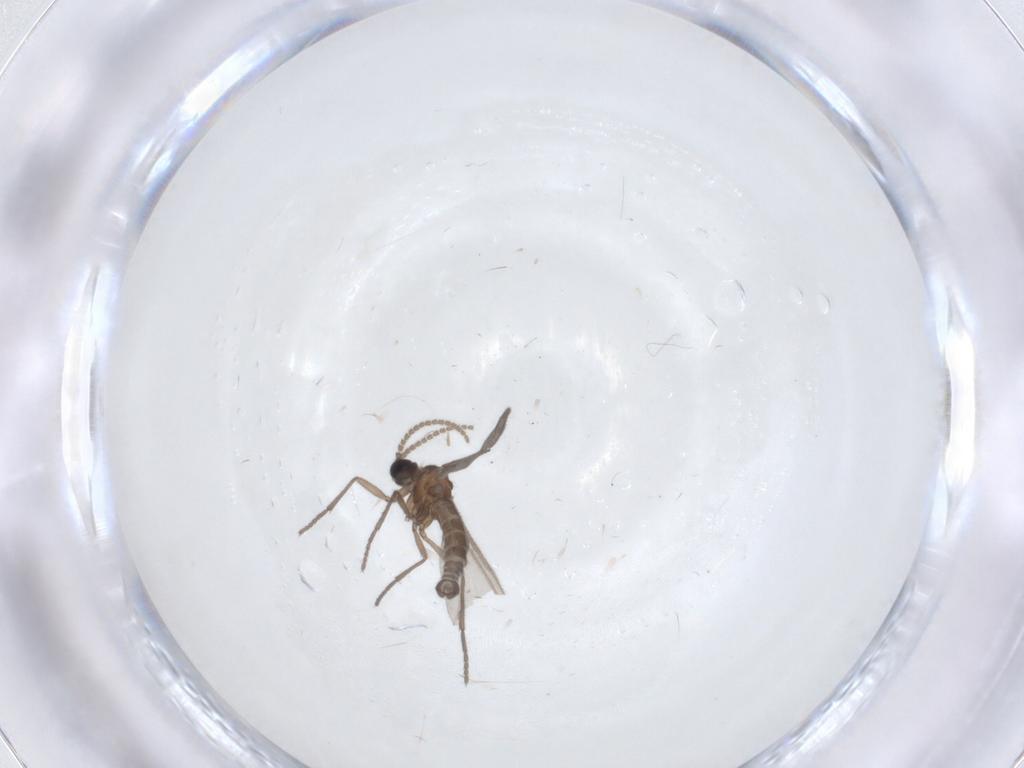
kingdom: Animalia
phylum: Arthropoda
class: Insecta
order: Diptera
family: Sciaridae
